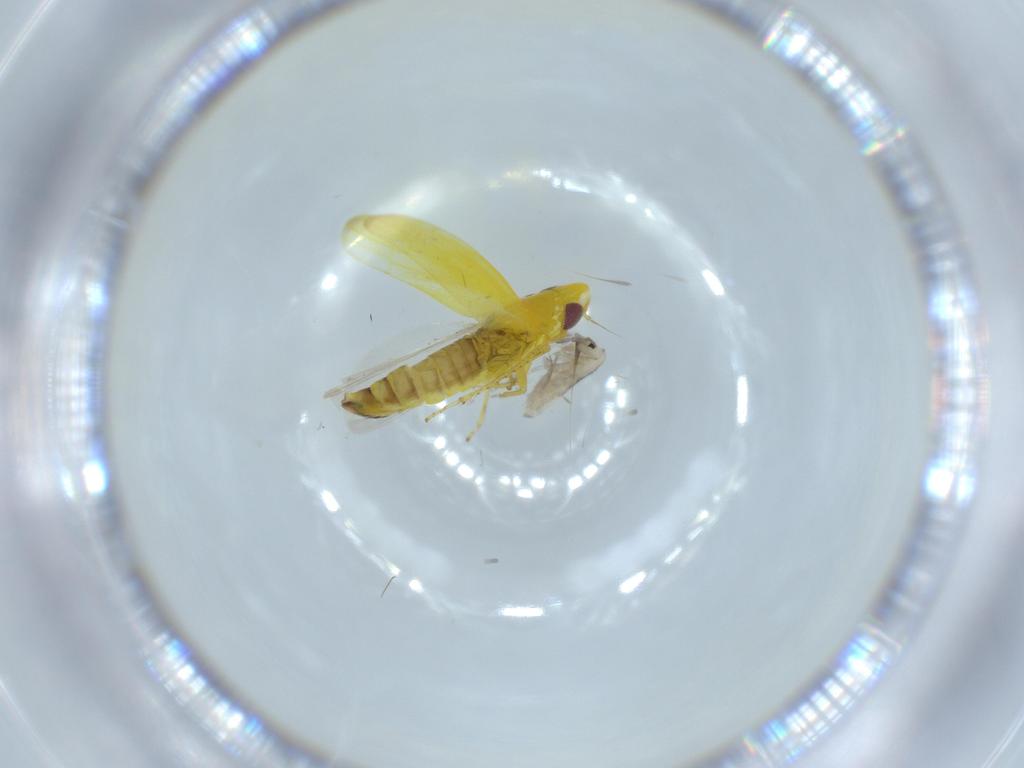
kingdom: Animalia
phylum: Arthropoda
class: Collembola
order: Entomobryomorpha
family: Entomobryidae
